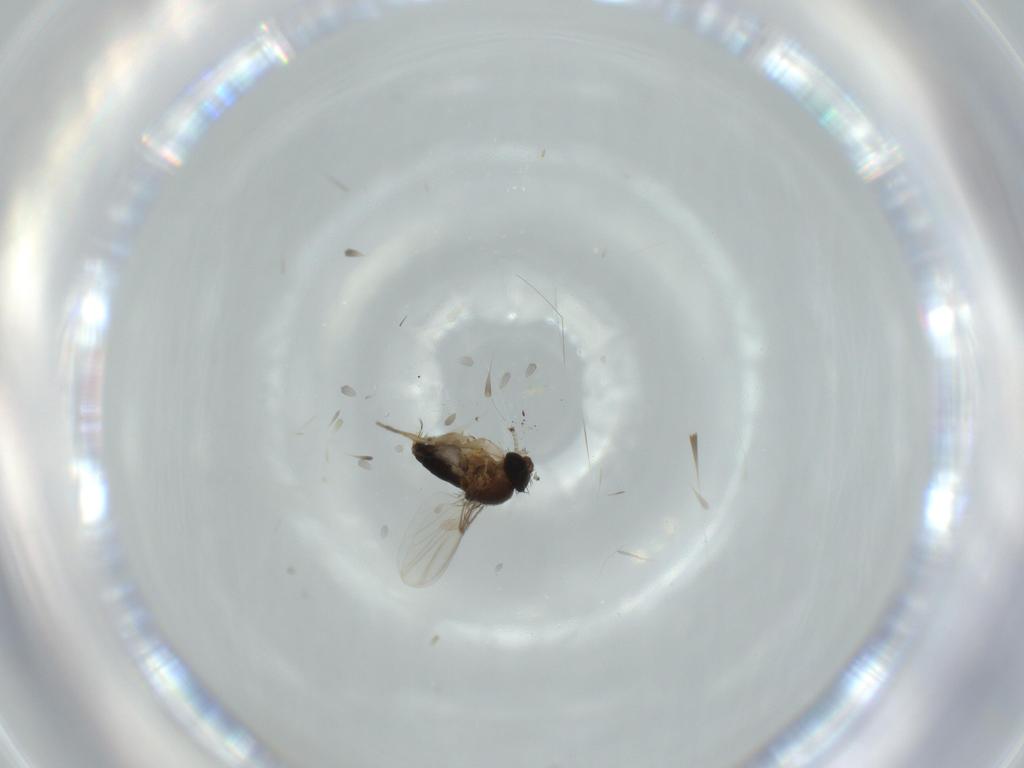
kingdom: Animalia
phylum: Arthropoda
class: Insecta
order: Diptera
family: Phoridae
